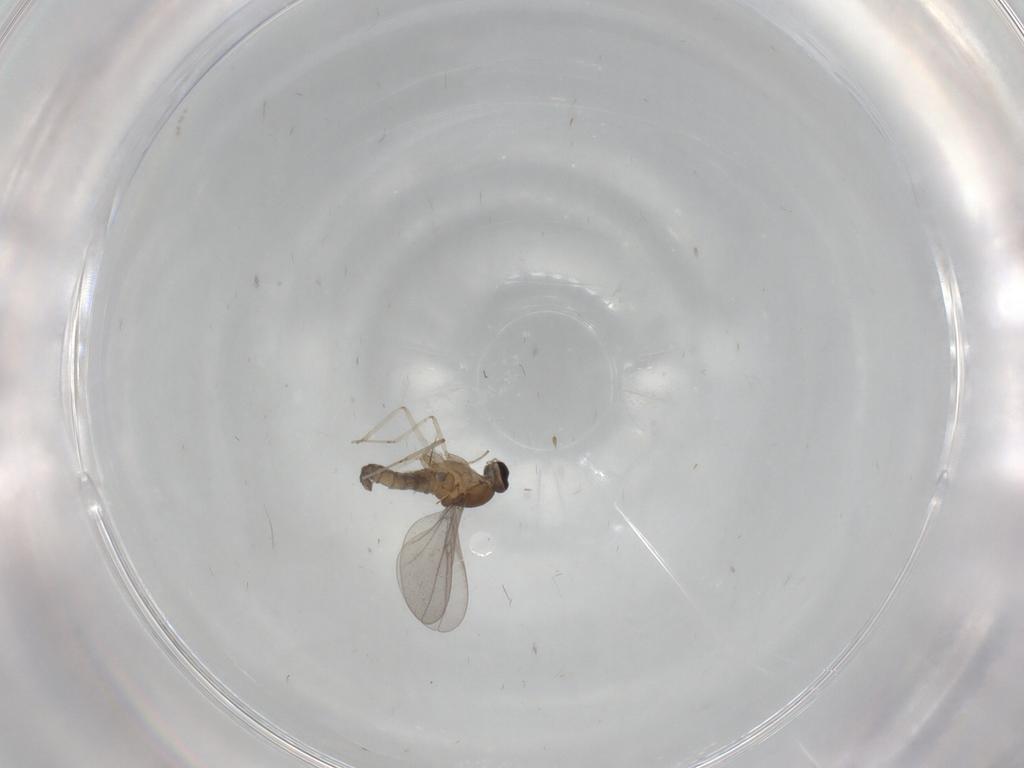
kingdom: Animalia
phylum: Arthropoda
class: Insecta
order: Diptera
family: Cecidomyiidae
